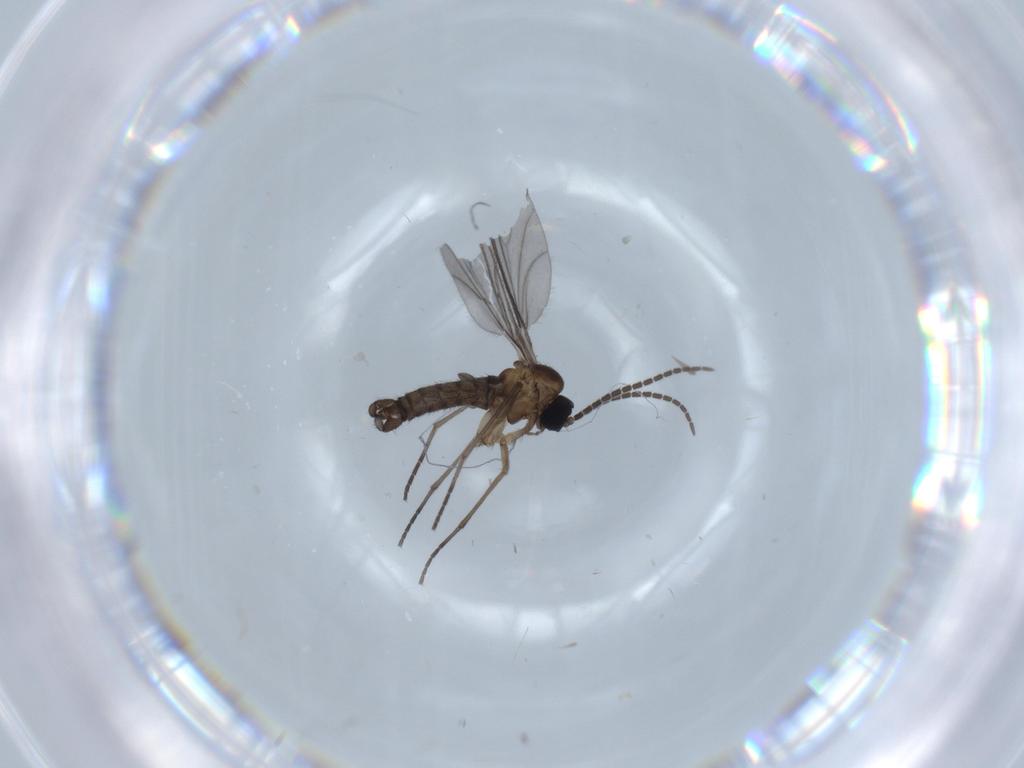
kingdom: Animalia
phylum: Arthropoda
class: Insecta
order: Diptera
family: Sciaridae
